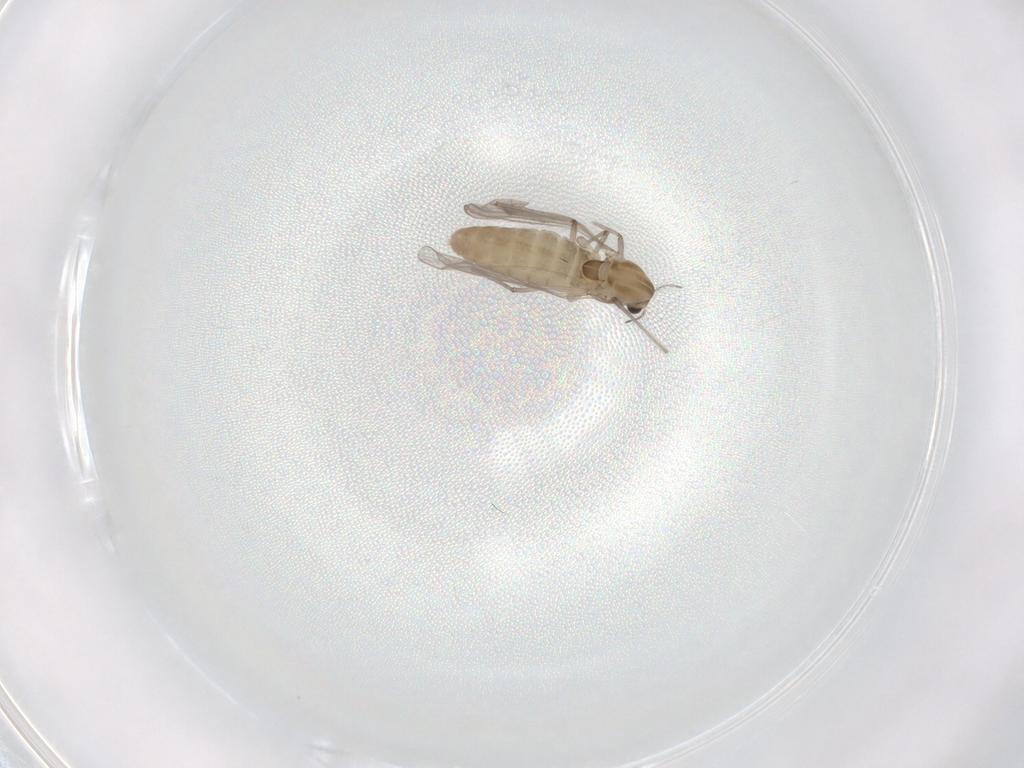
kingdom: Animalia
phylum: Arthropoda
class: Insecta
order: Diptera
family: Chironomidae
